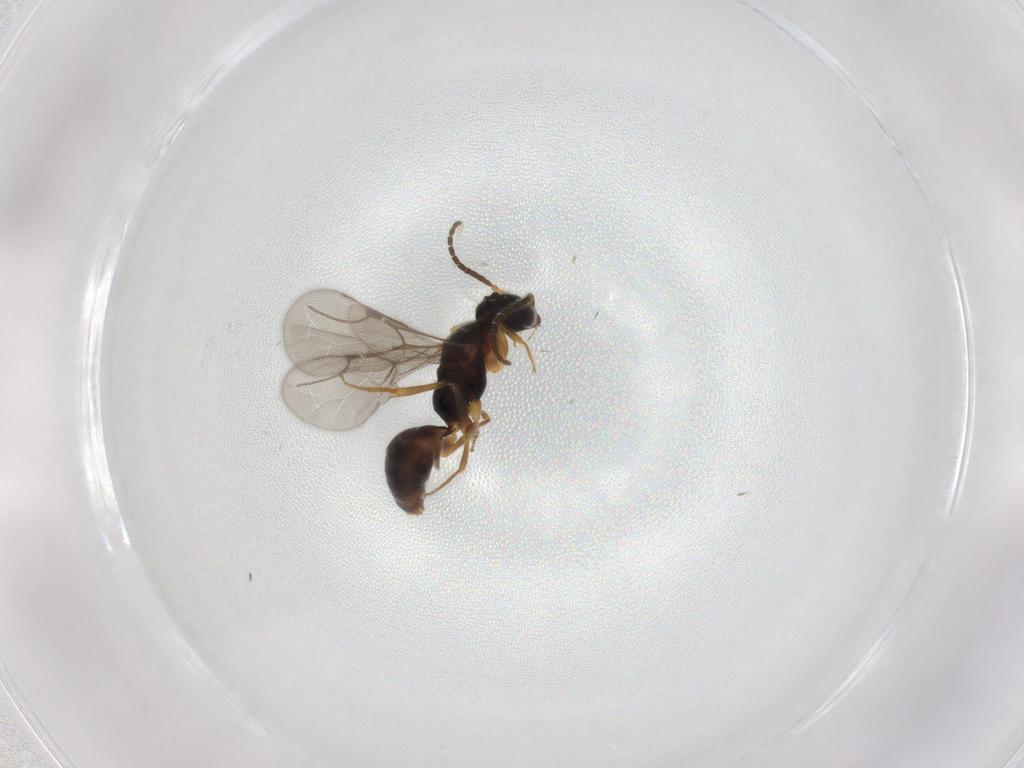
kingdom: Animalia
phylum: Arthropoda
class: Insecta
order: Hymenoptera
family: Bethylidae
